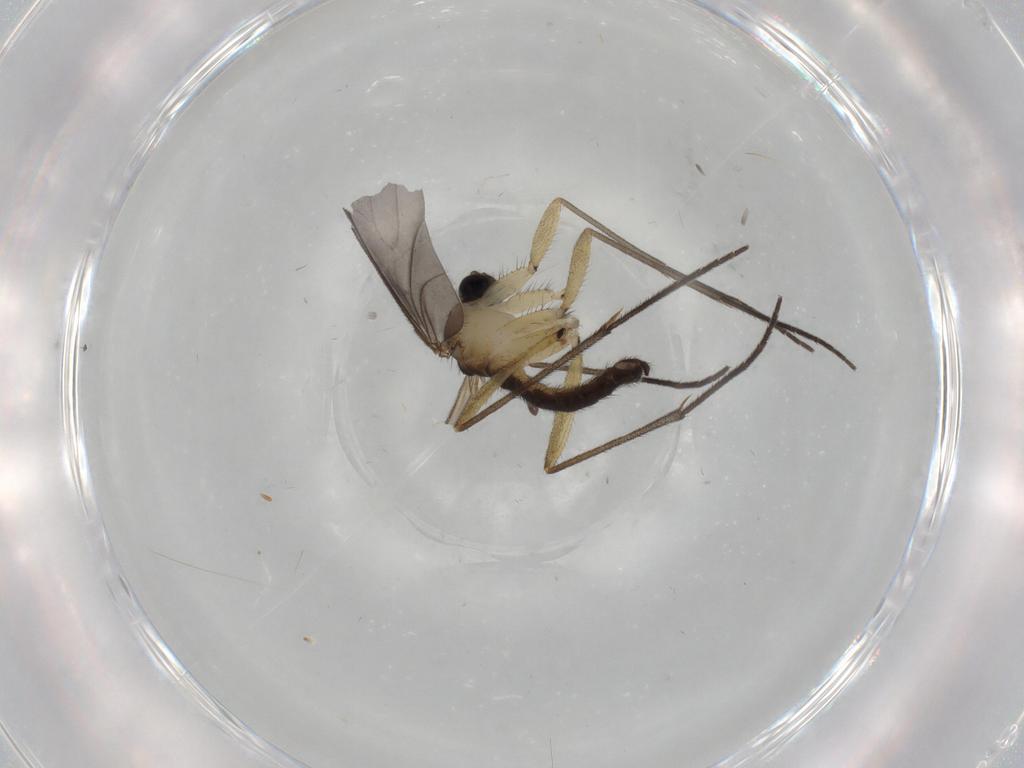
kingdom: Animalia
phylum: Arthropoda
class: Insecta
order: Diptera
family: Sciaridae
